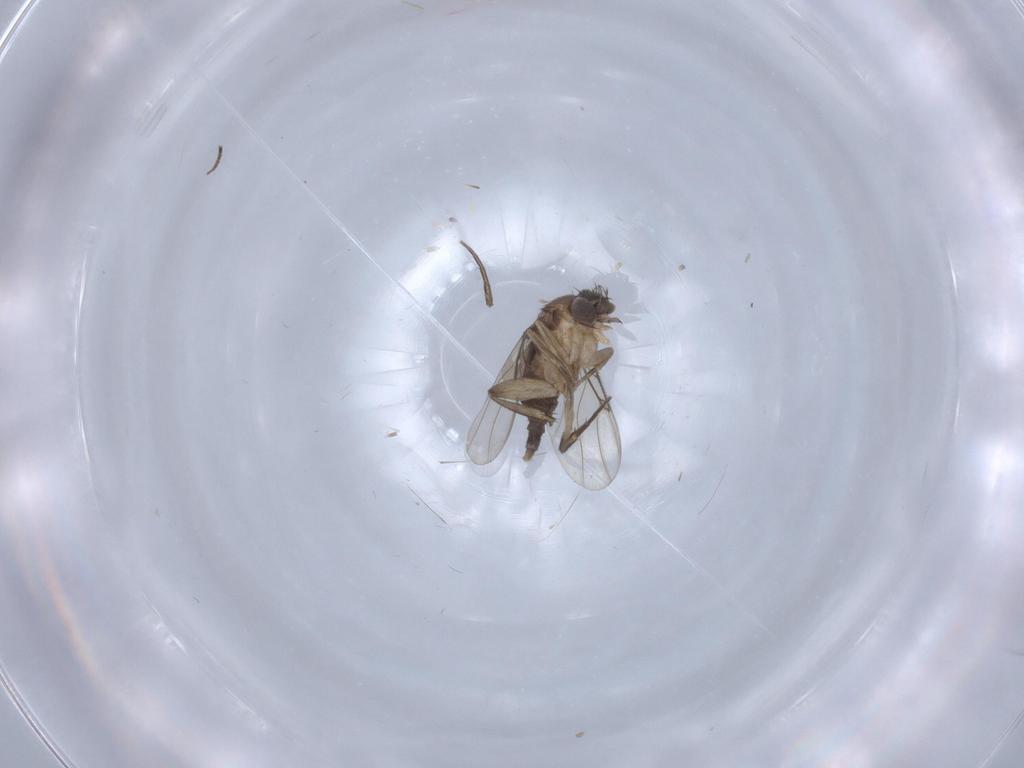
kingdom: Animalia
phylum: Arthropoda
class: Insecta
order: Diptera
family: Phoridae
